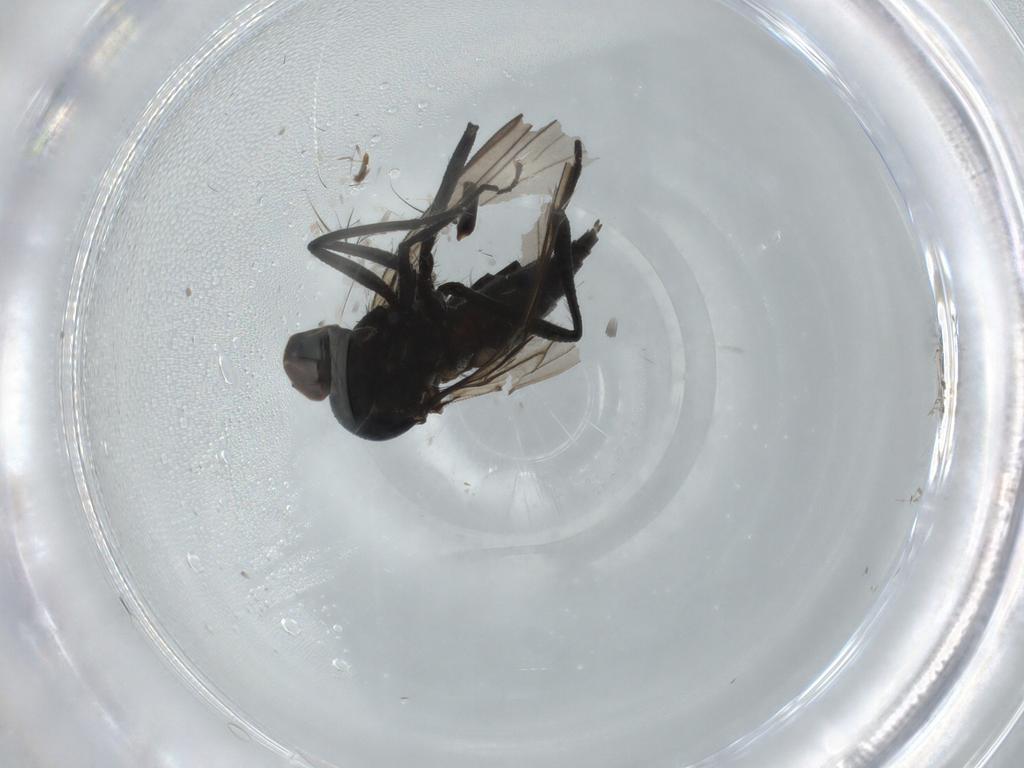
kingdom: Animalia
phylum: Arthropoda
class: Insecta
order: Diptera
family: Hybotidae
